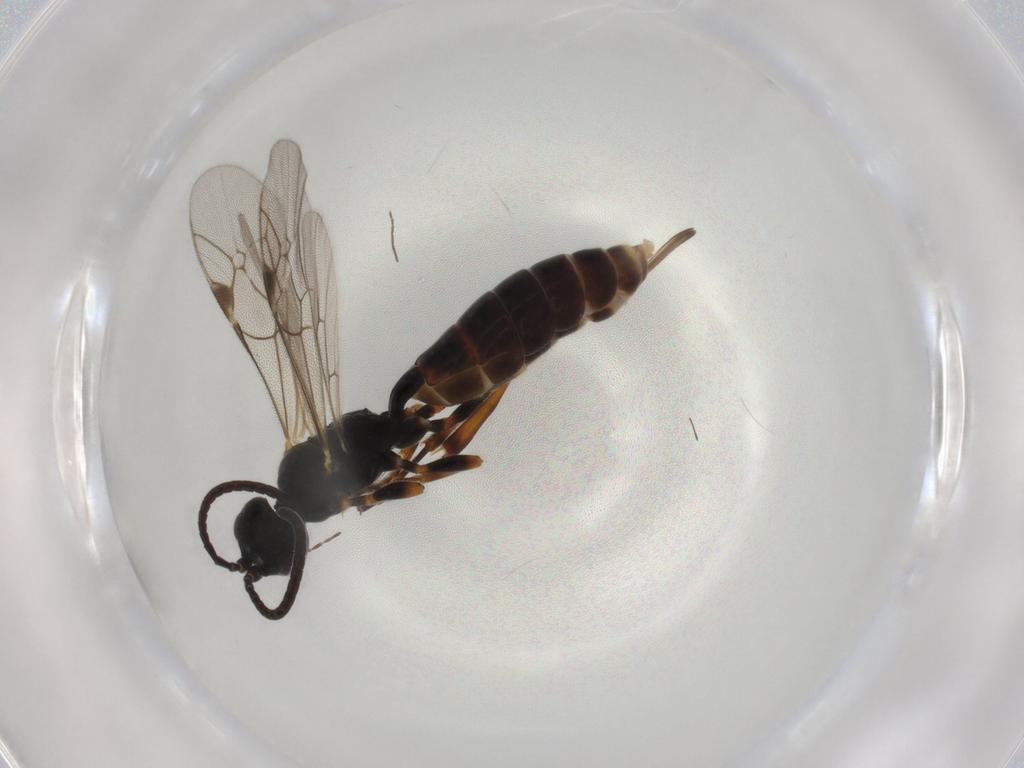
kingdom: Animalia
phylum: Arthropoda
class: Insecta
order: Hymenoptera
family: Ichneumonidae
